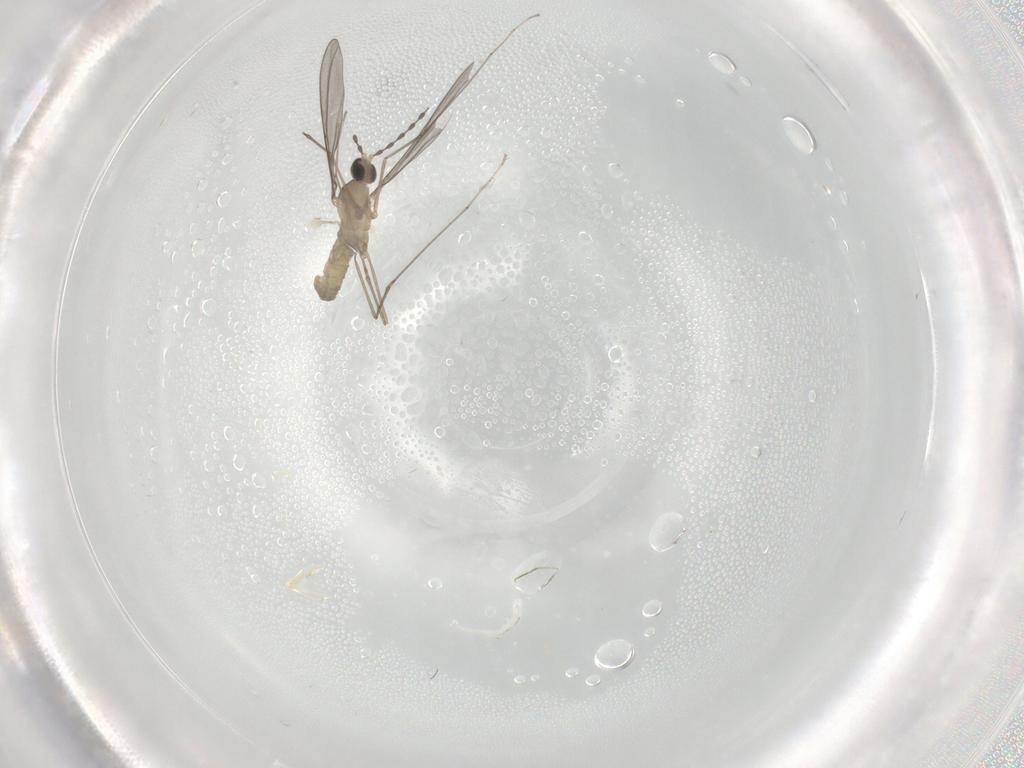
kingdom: Animalia
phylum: Arthropoda
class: Insecta
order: Diptera
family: Cecidomyiidae
